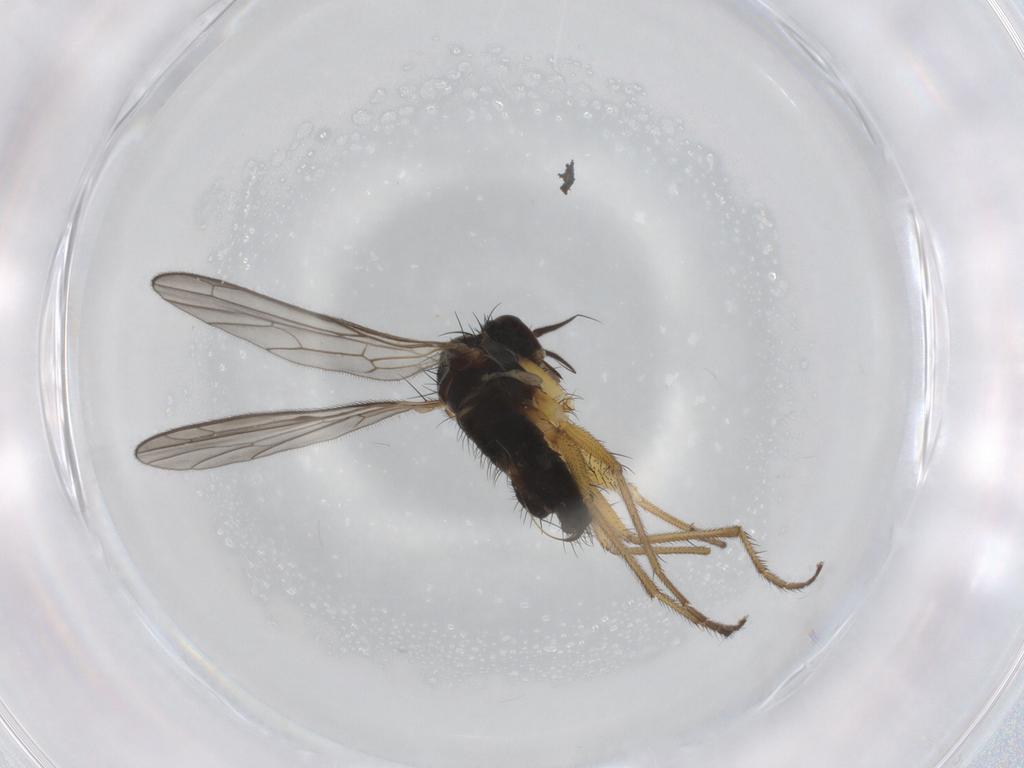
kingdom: Animalia
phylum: Arthropoda
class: Insecta
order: Diptera
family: Empididae
